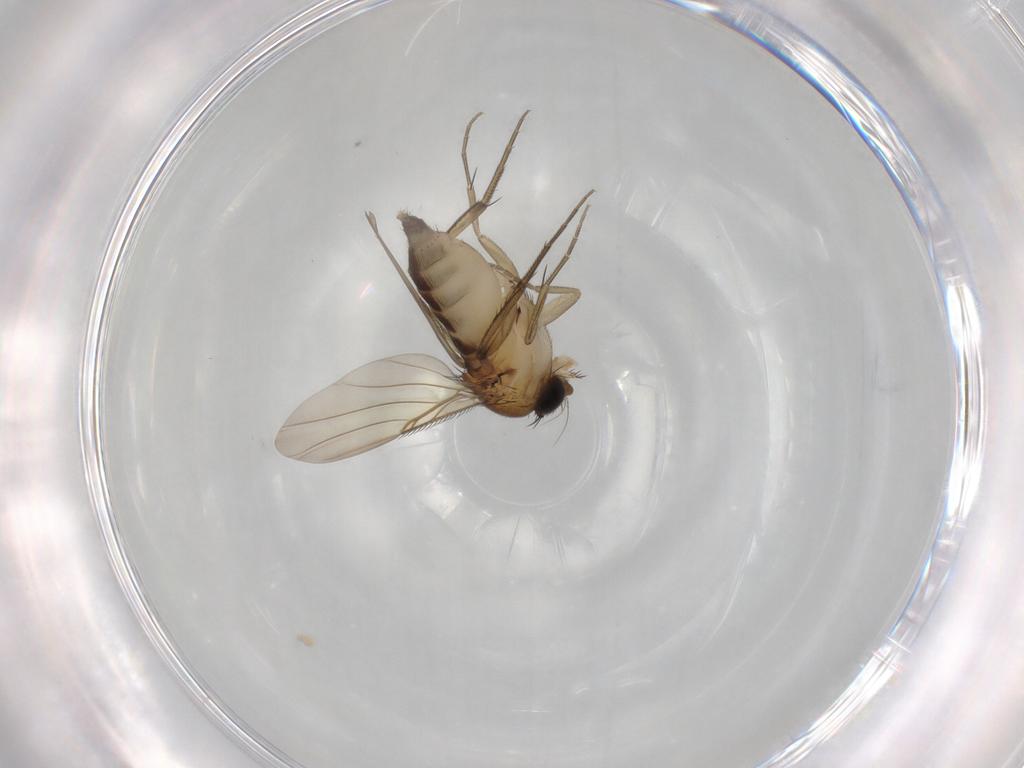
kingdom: Animalia
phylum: Arthropoda
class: Insecta
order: Diptera
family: Phoridae
